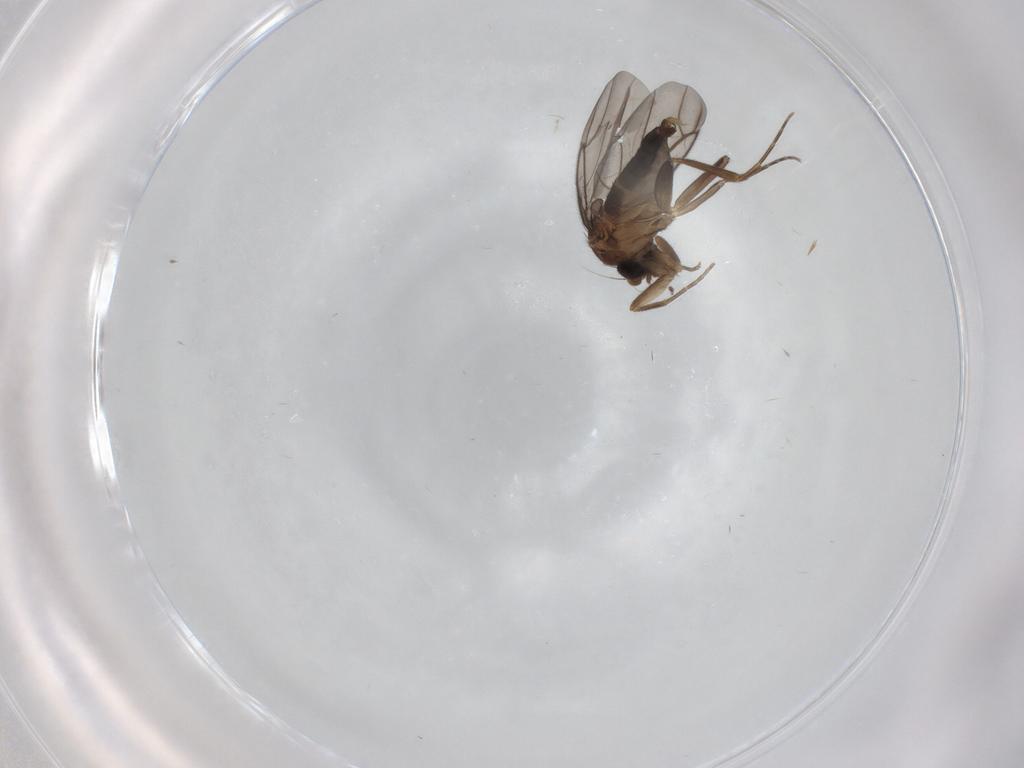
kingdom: Animalia
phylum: Arthropoda
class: Insecta
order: Diptera
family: Phoridae
